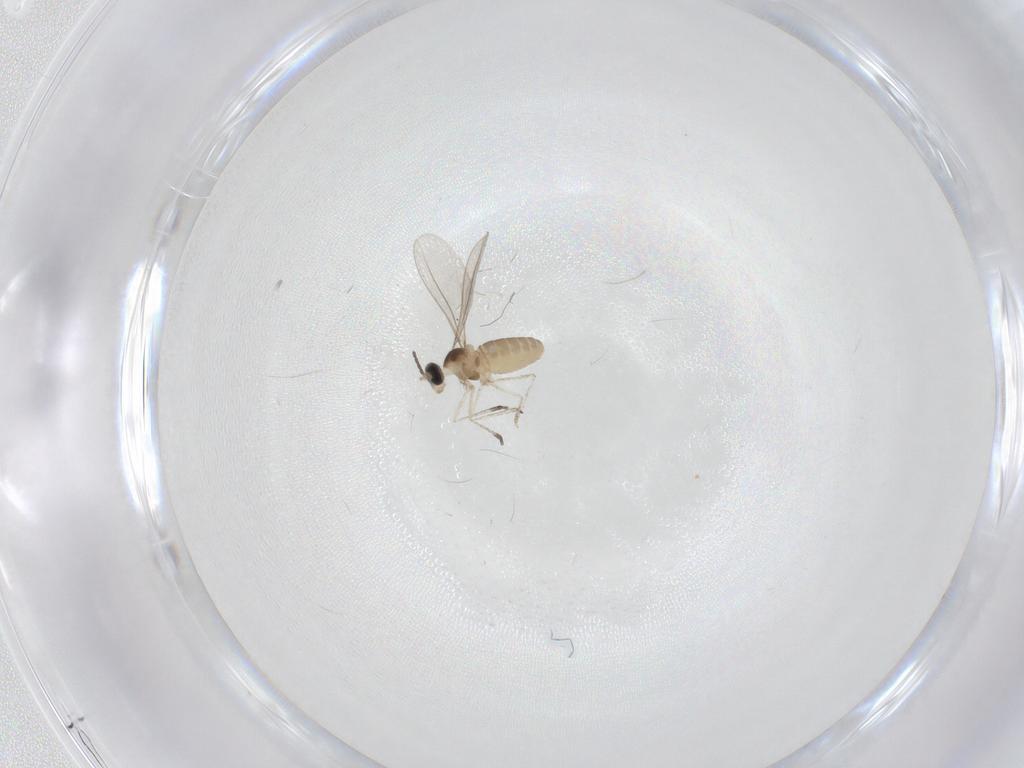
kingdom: Animalia
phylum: Arthropoda
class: Insecta
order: Diptera
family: Cecidomyiidae
